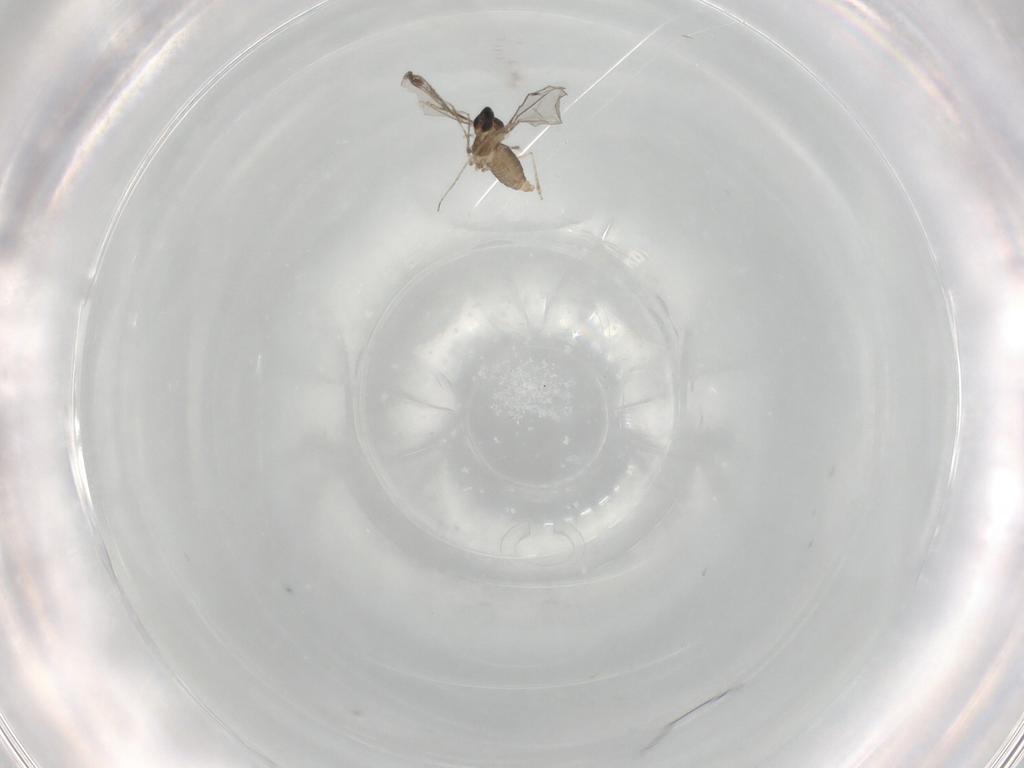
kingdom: Animalia
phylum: Arthropoda
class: Insecta
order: Diptera
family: Cecidomyiidae
